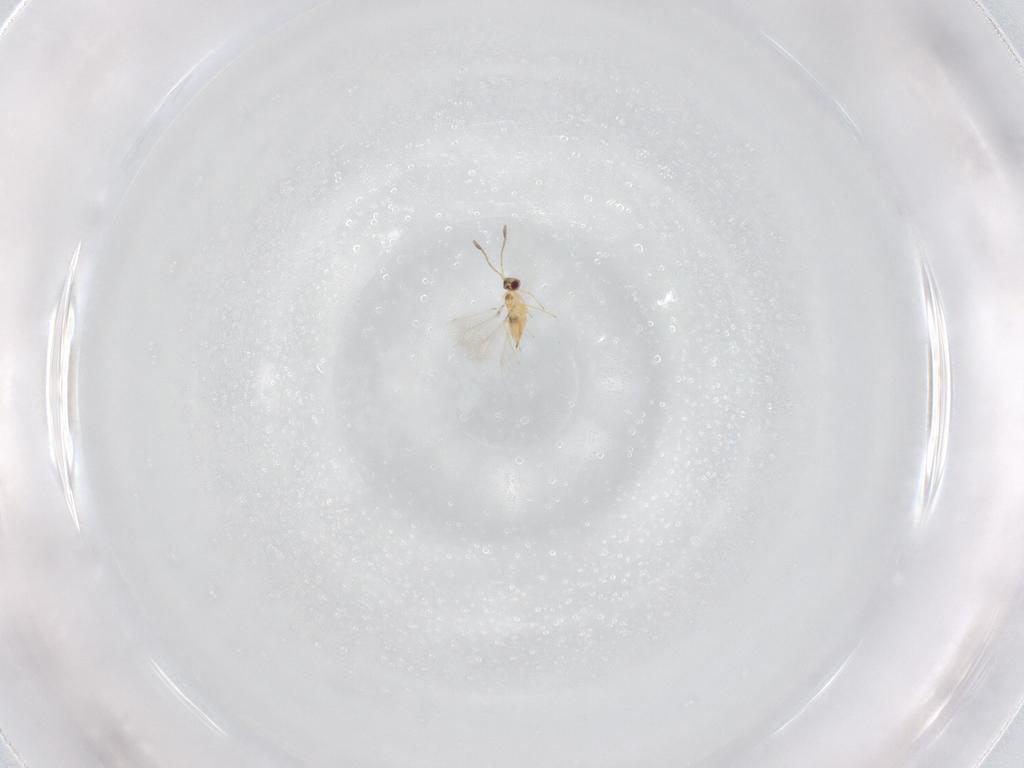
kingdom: Animalia
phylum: Arthropoda
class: Insecta
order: Hymenoptera
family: Mymaridae
